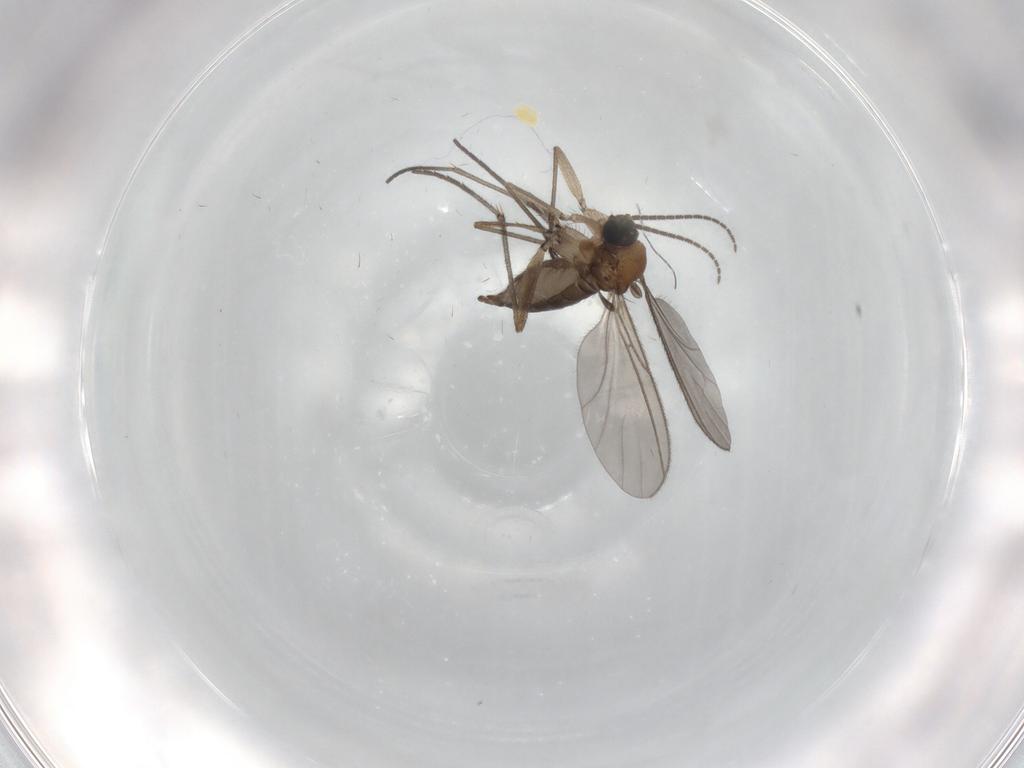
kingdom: Animalia
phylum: Arthropoda
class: Insecta
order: Diptera
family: Sciaridae
